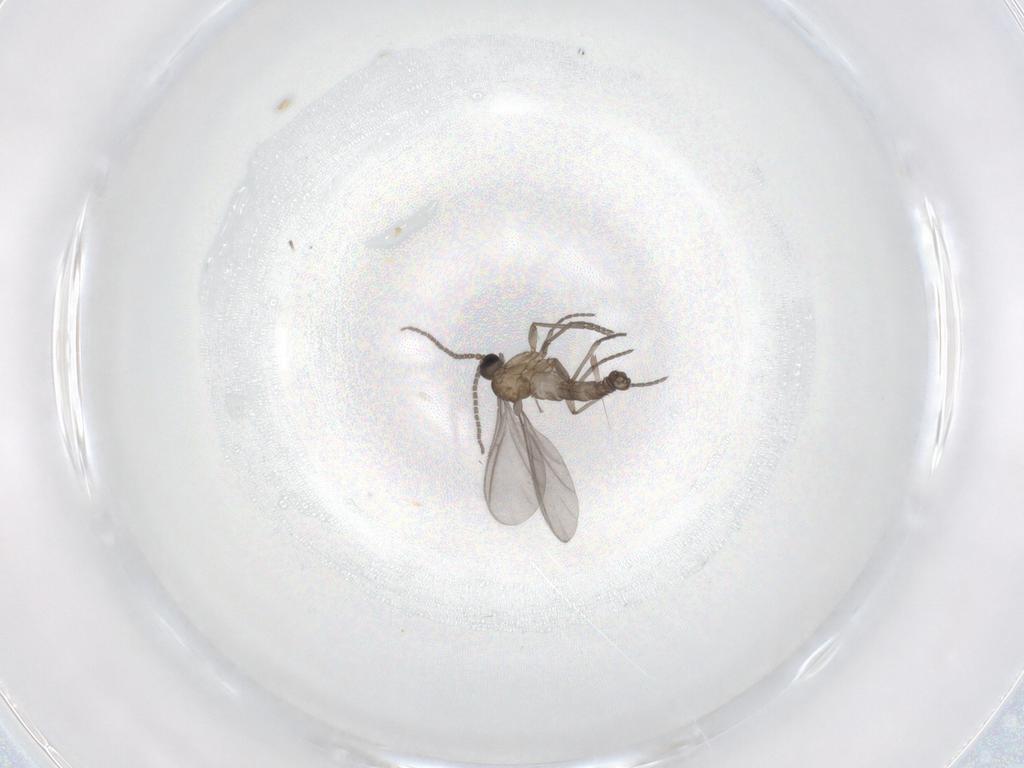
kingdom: Animalia
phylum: Arthropoda
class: Insecta
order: Diptera
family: Sciaridae
